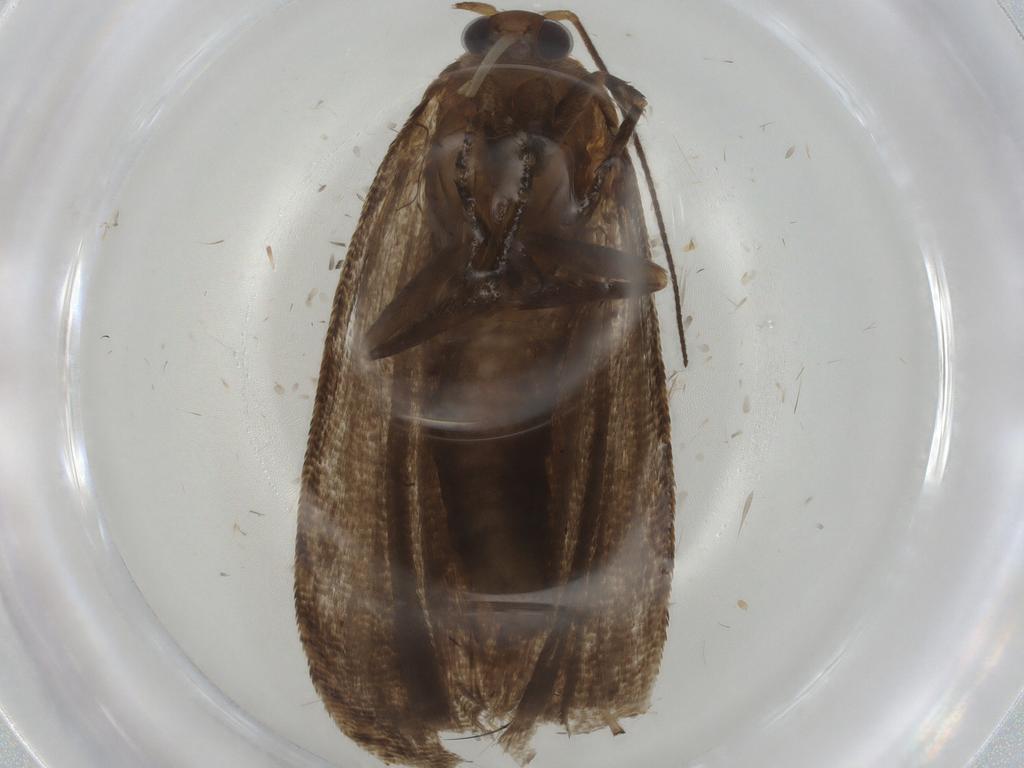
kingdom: Animalia
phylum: Arthropoda
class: Insecta
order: Lepidoptera
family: Tortricidae
